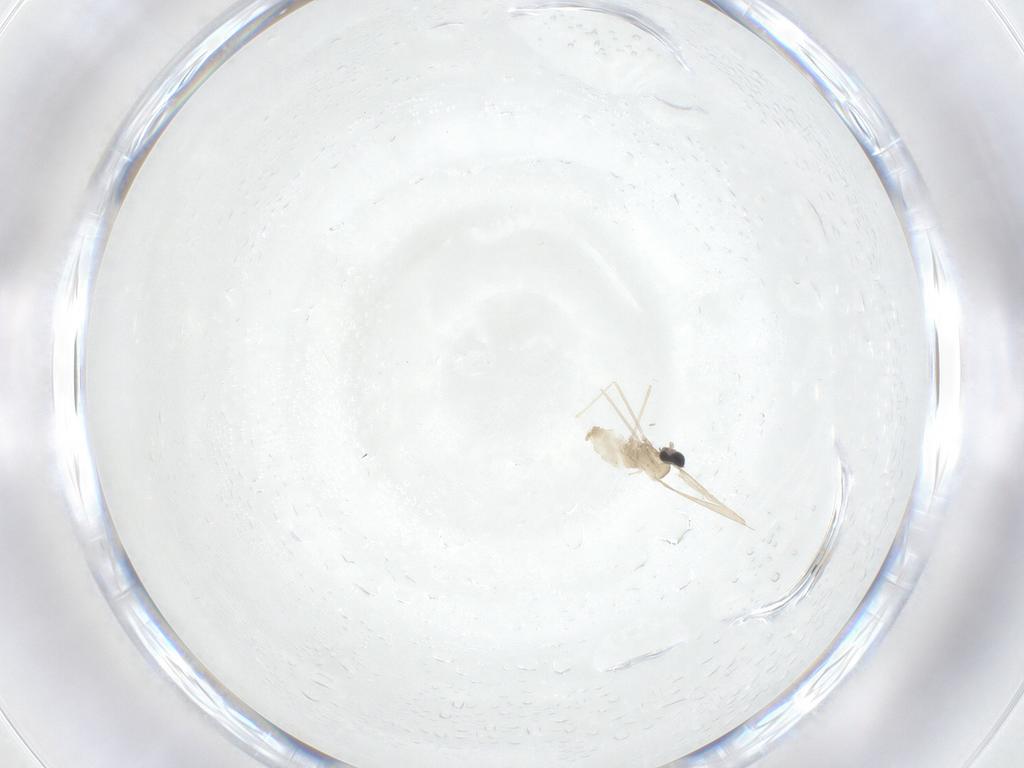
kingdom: Animalia
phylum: Arthropoda
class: Insecta
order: Diptera
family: Cecidomyiidae
